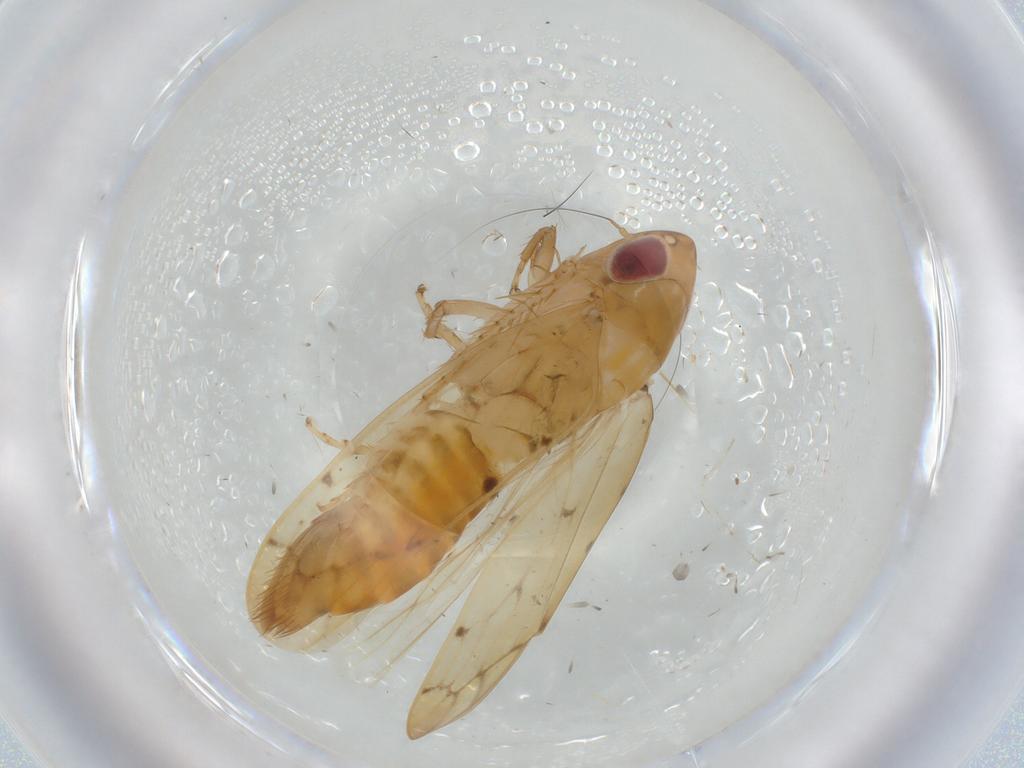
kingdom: Animalia
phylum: Arthropoda
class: Insecta
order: Hemiptera
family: Cicadellidae
